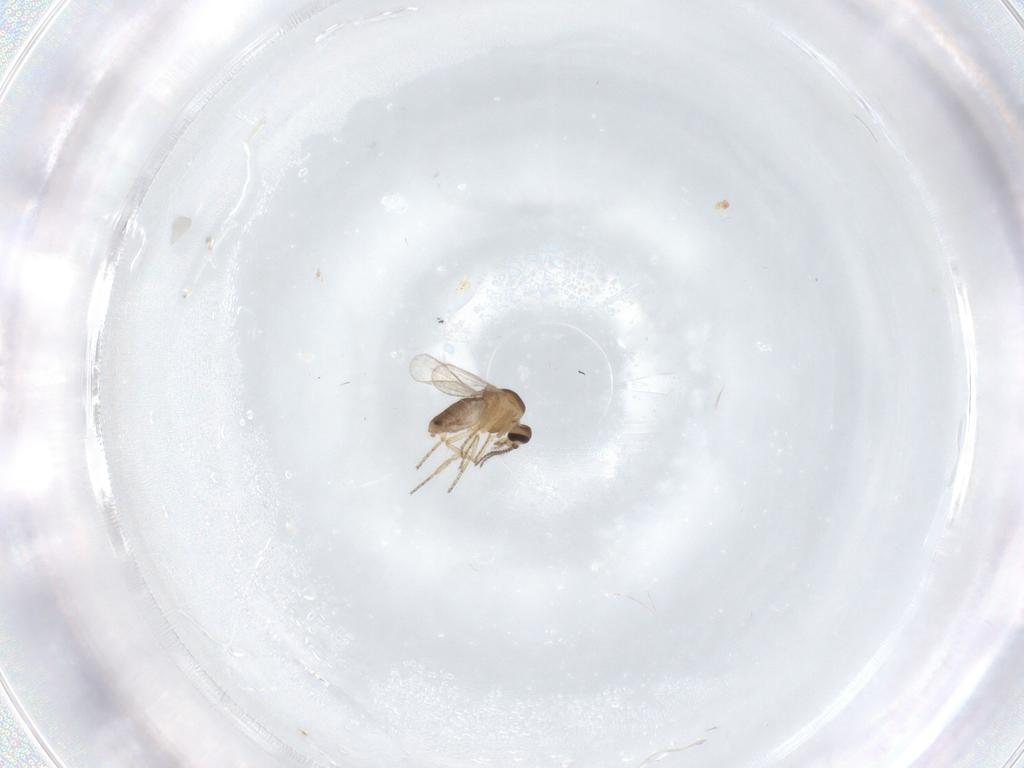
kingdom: Animalia
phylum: Arthropoda
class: Insecta
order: Diptera
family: Ceratopogonidae
